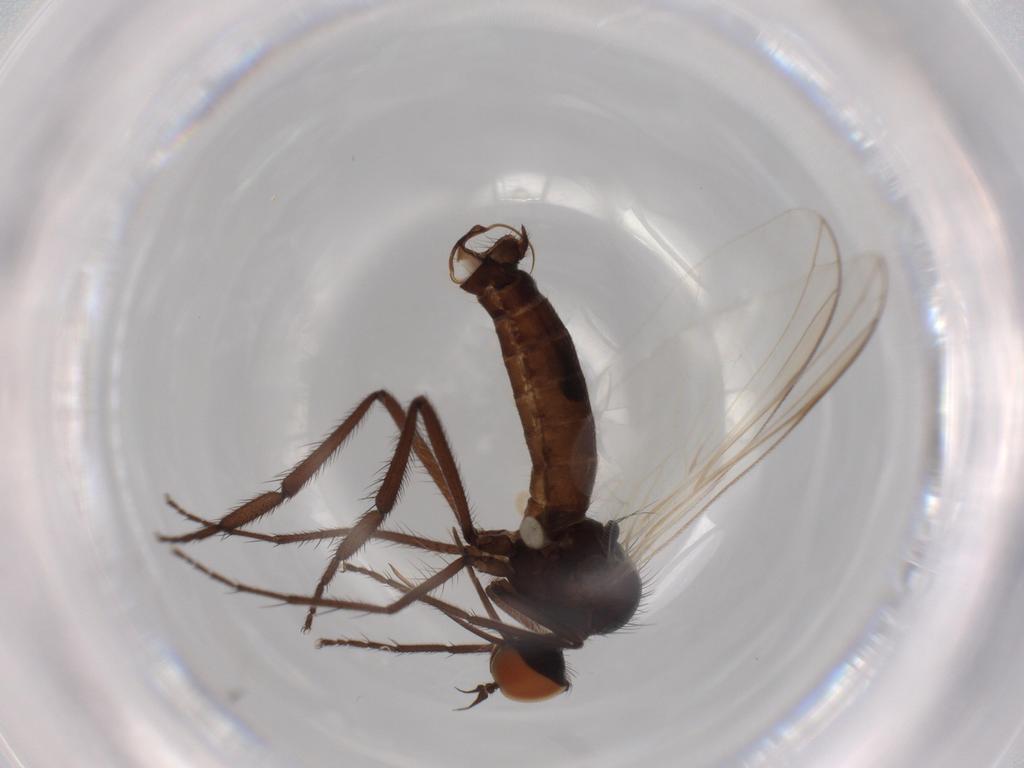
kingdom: Animalia
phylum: Arthropoda
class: Insecta
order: Diptera
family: Empididae
